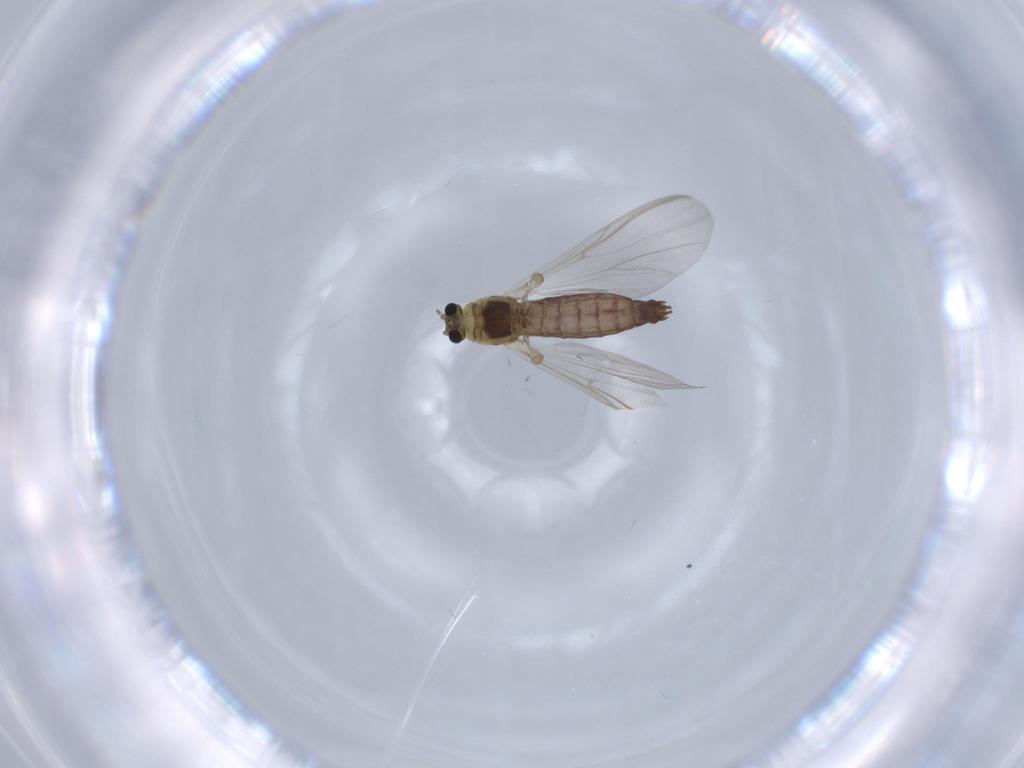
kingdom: Animalia
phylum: Arthropoda
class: Insecta
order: Diptera
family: Chironomidae
